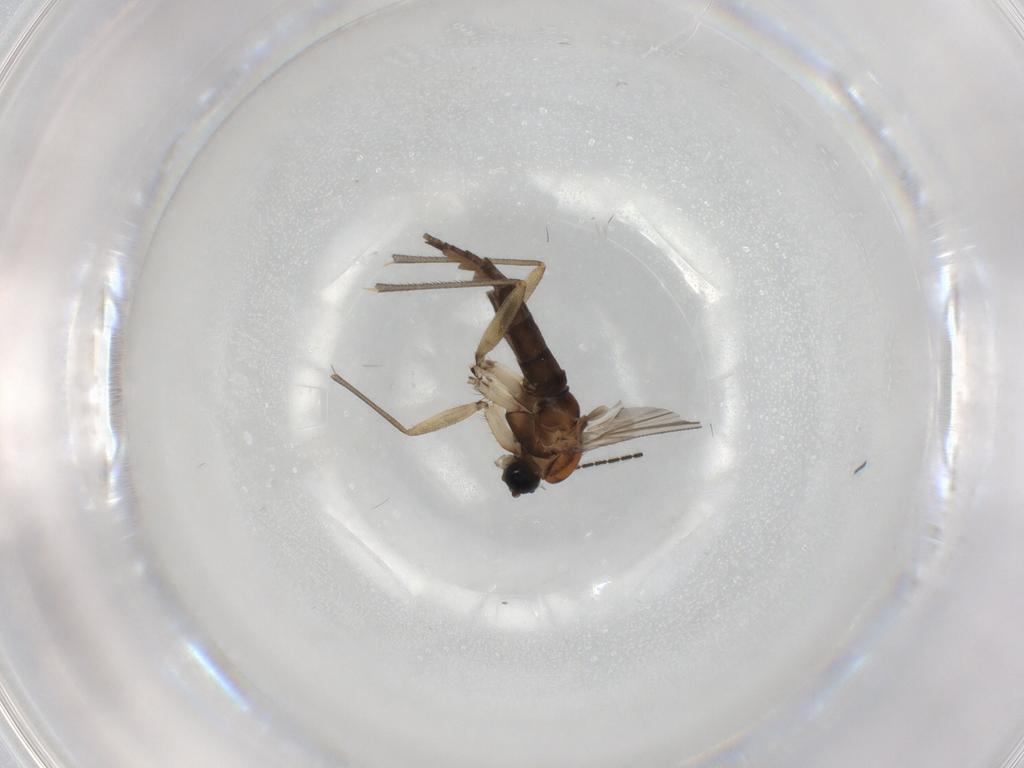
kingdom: Animalia
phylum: Arthropoda
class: Insecta
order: Diptera
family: Sciaridae
